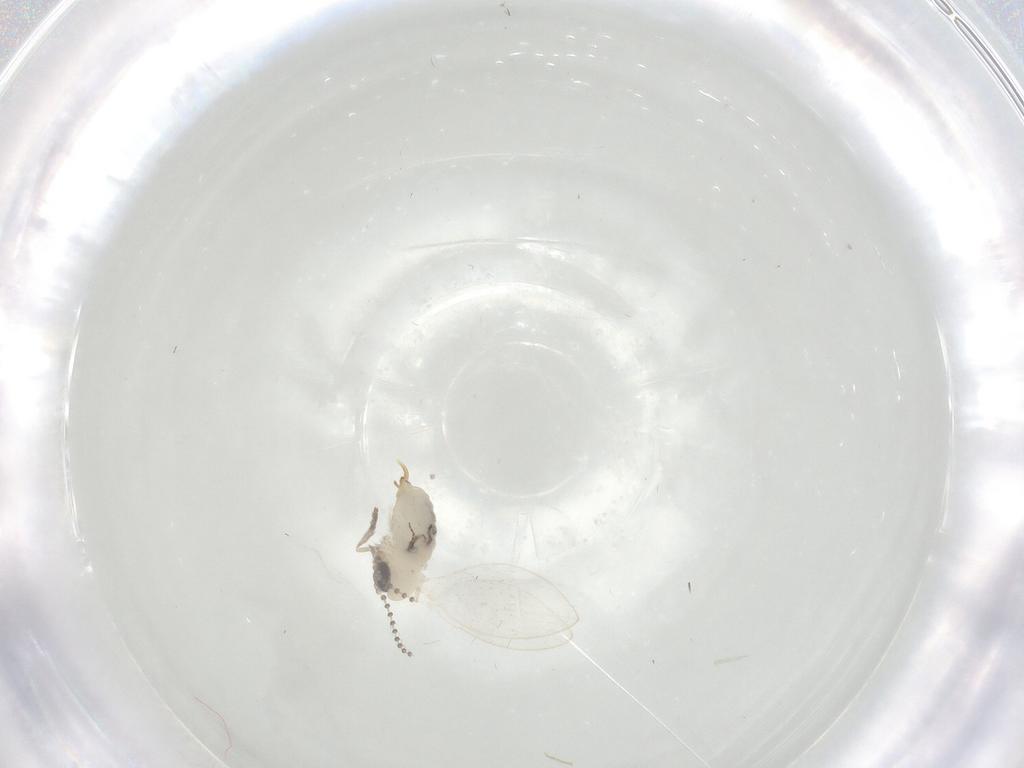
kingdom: Animalia
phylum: Arthropoda
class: Insecta
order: Diptera
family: Psychodidae
